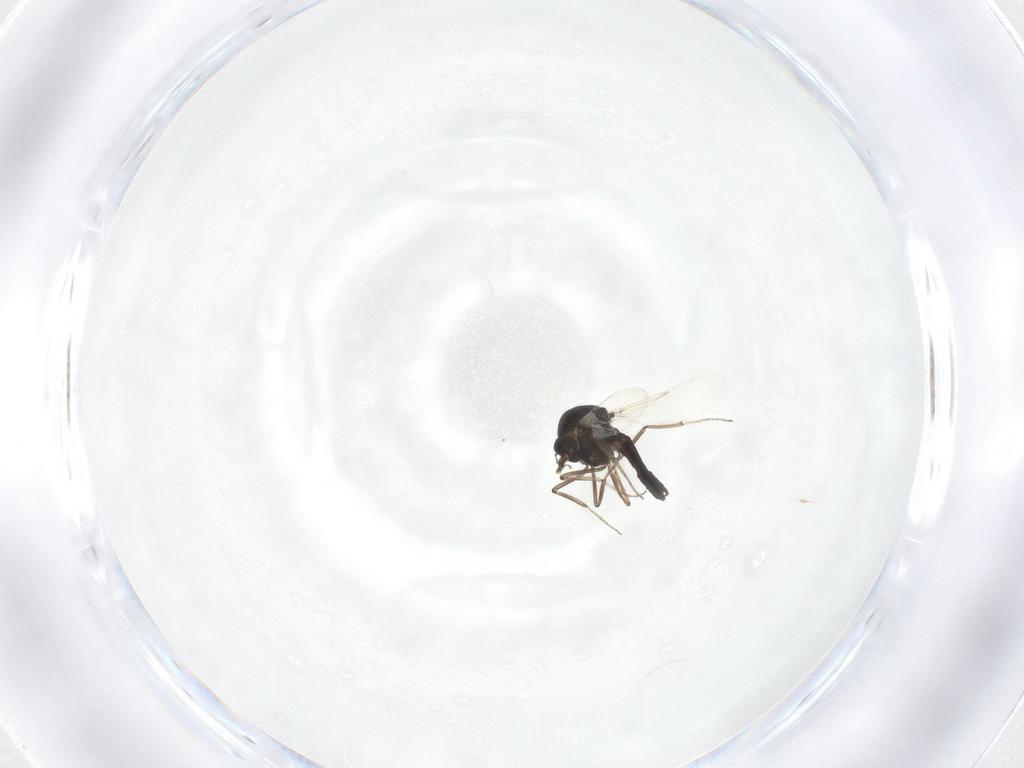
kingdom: Animalia
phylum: Arthropoda
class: Insecta
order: Diptera
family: Ceratopogonidae
